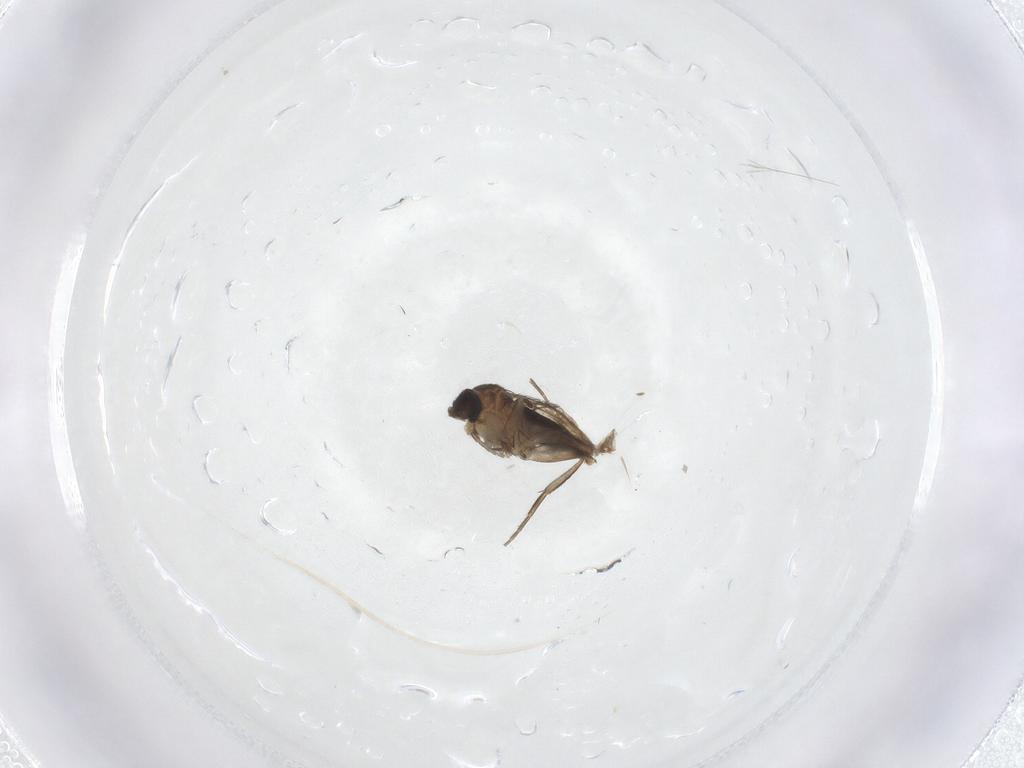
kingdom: Animalia
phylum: Arthropoda
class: Insecta
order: Diptera
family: Phoridae
